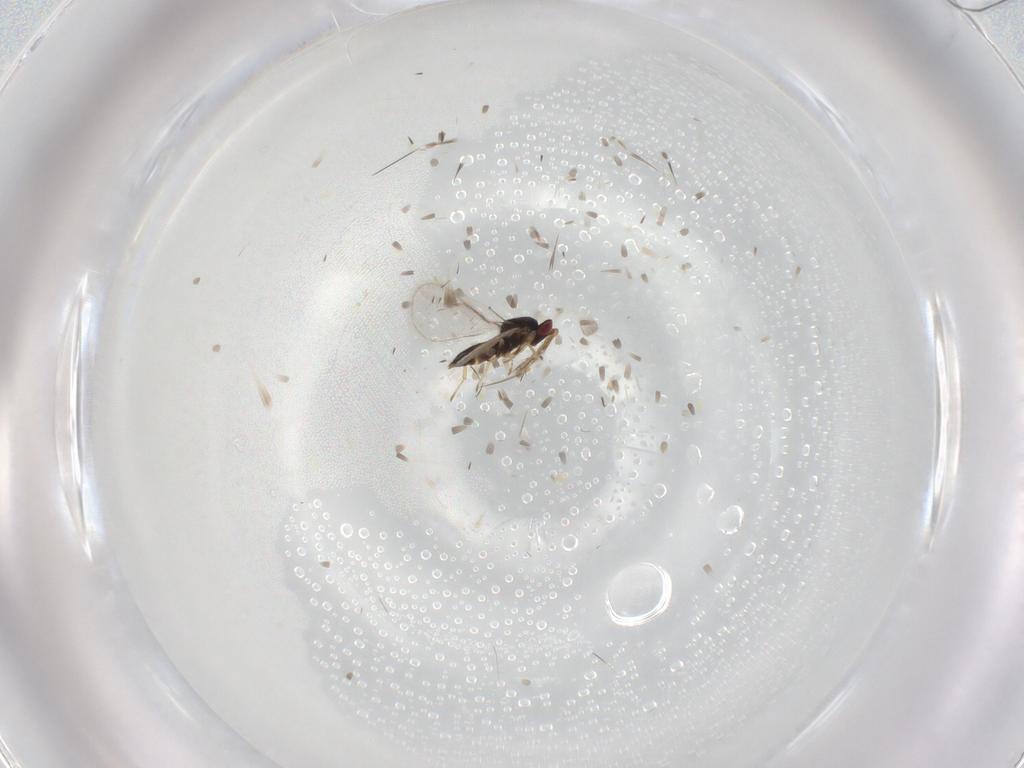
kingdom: Animalia
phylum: Arthropoda
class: Insecta
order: Hymenoptera
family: Eulophidae
